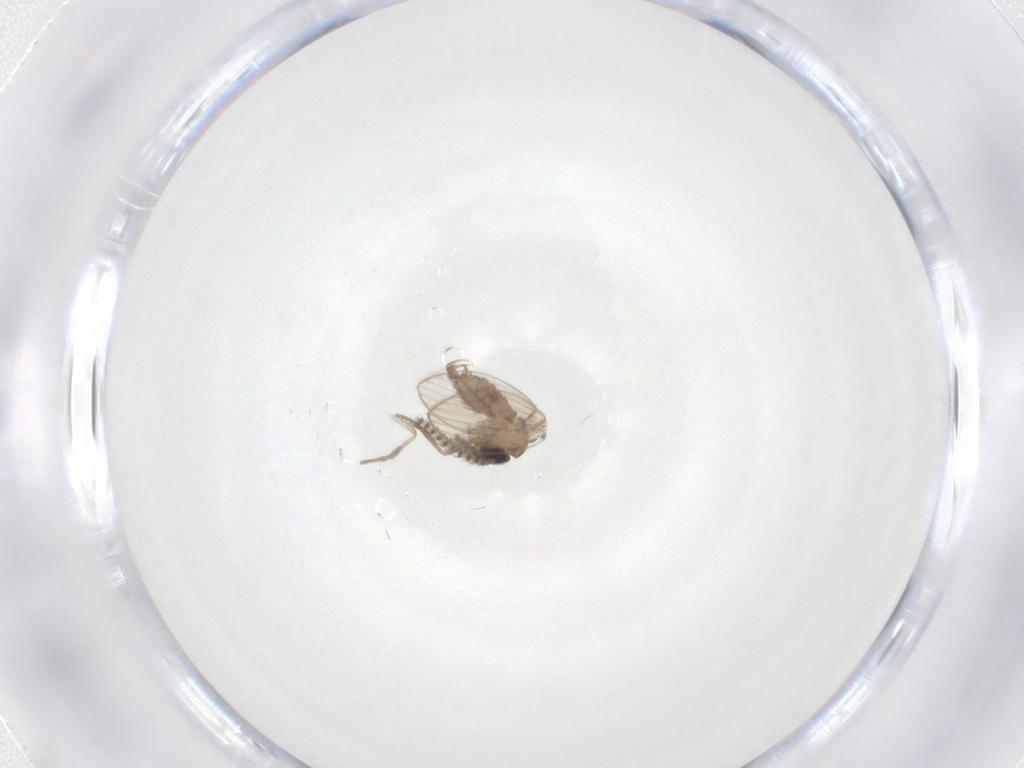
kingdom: Animalia
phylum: Arthropoda
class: Insecta
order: Diptera
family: Psychodidae
